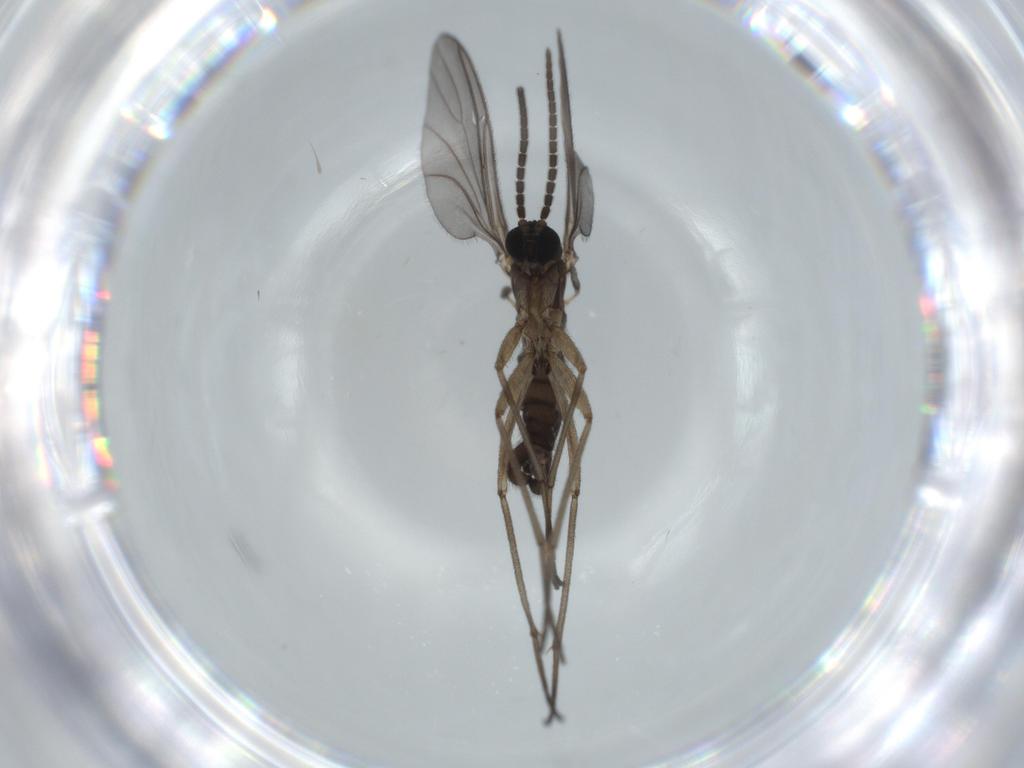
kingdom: Animalia
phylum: Arthropoda
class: Insecta
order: Diptera
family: Sciaridae
